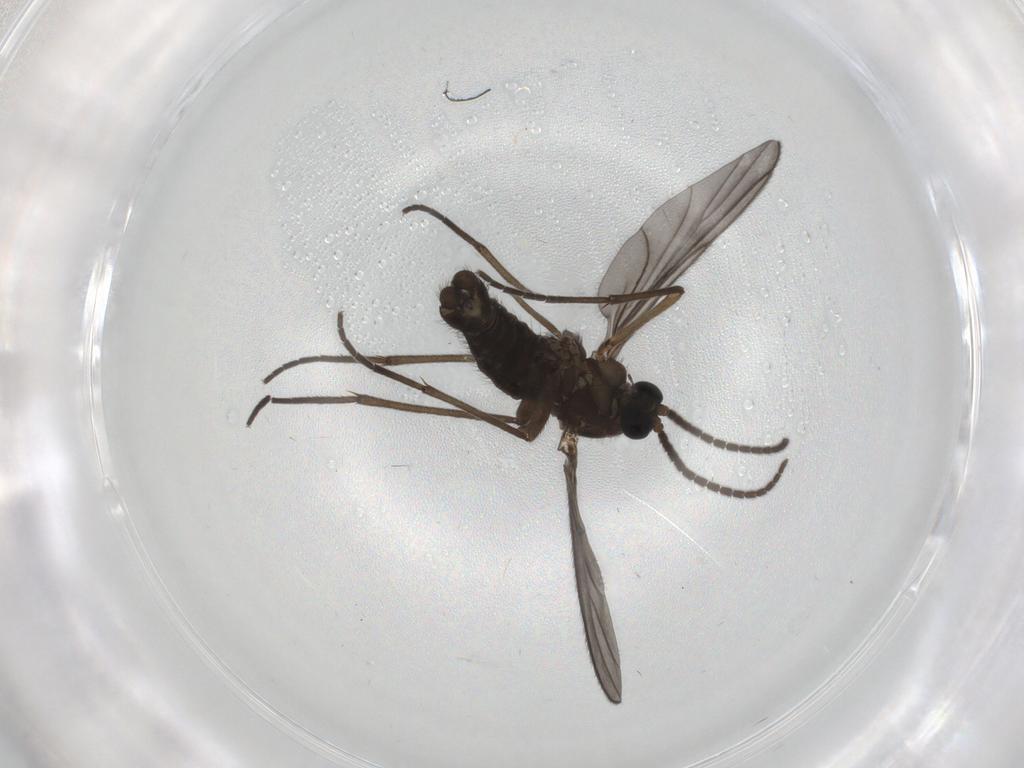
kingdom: Animalia
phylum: Arthropoda
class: Insecta
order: Diptera
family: Sciaridae
